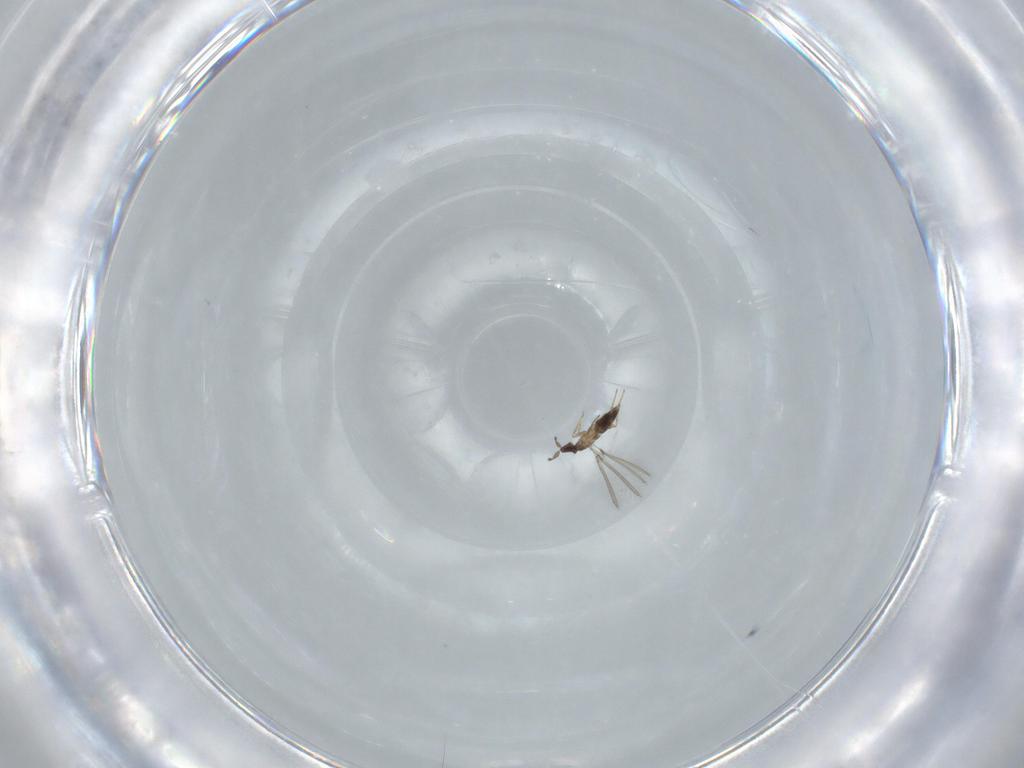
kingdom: Animalia
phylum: Arthropoda
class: Insecta
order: Hymenoptera
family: Mymaridae
